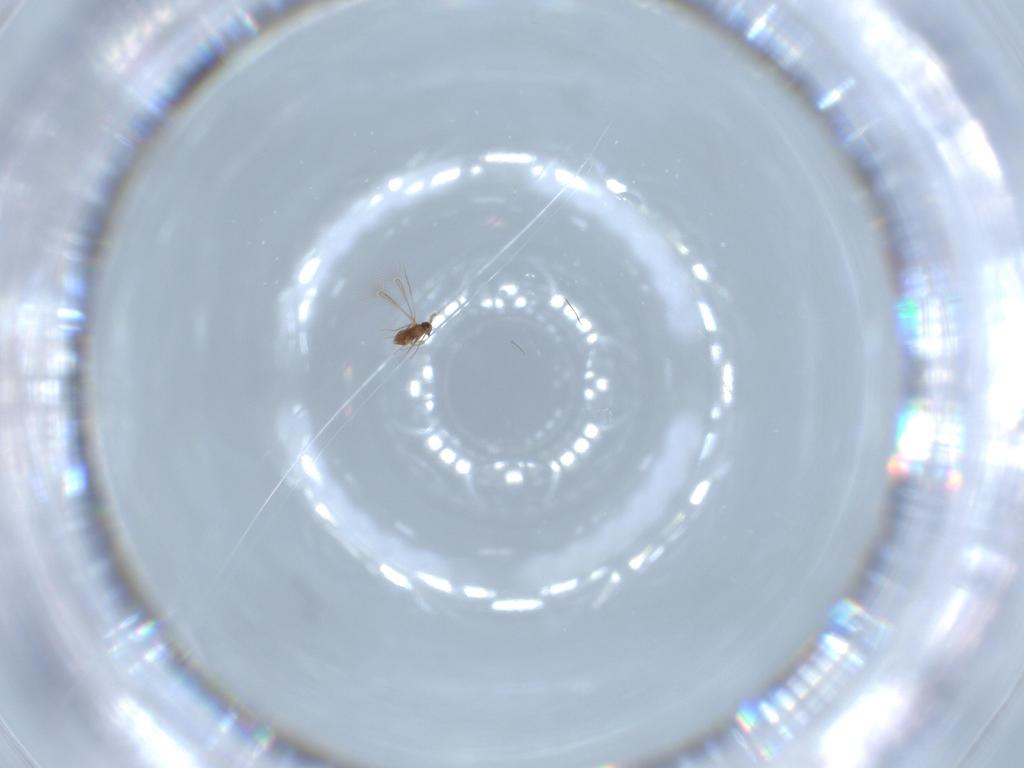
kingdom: Animalia
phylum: Arthropoda
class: Insecta
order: Hymenoptera
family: Mymaridae
